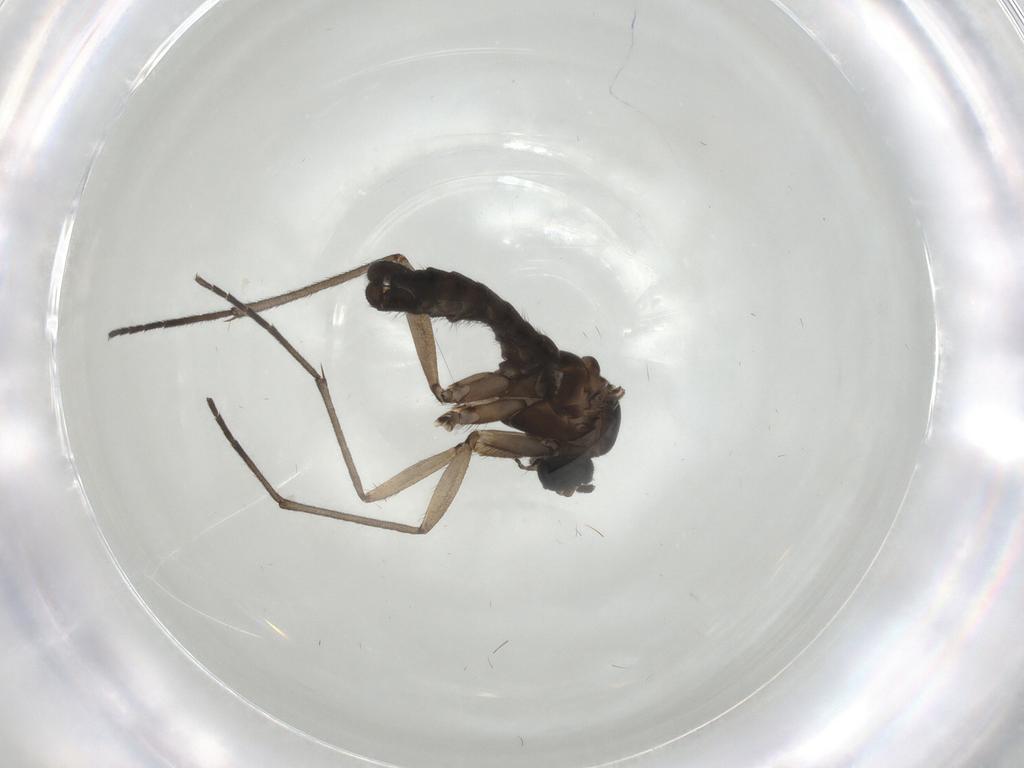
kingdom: Animalia
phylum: Arthropoda
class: Insecta
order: Diptera
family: Sciaridae
